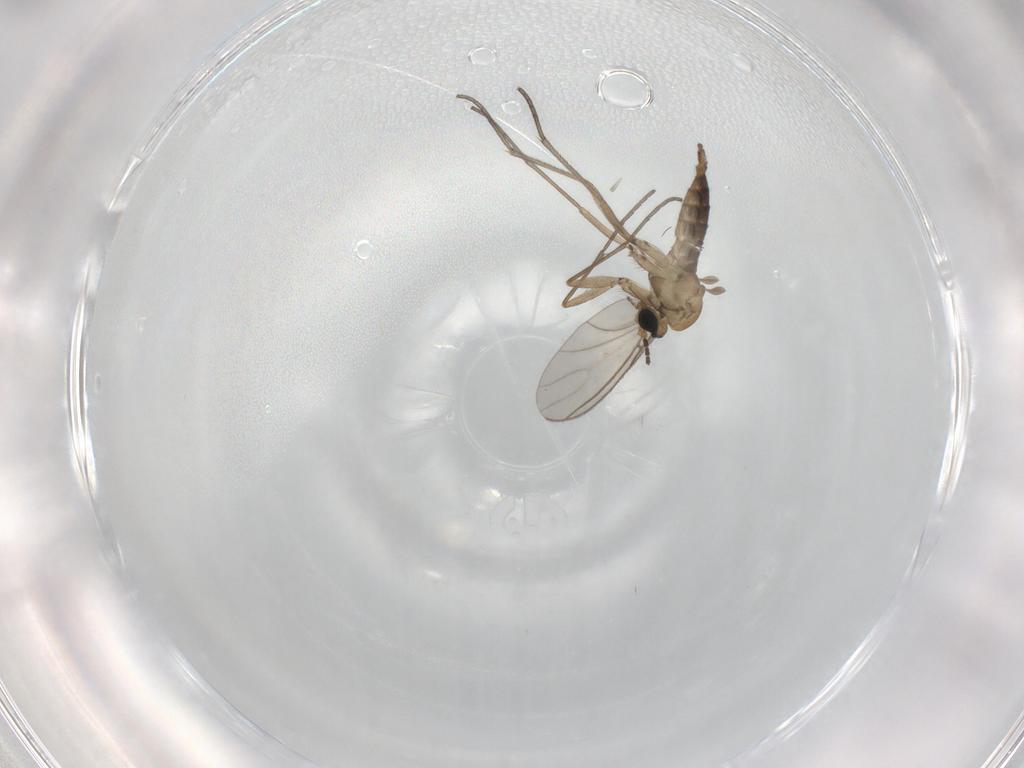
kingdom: Animalia
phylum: Arthropoda
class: Insecta
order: Diptera
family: Sciaridae
